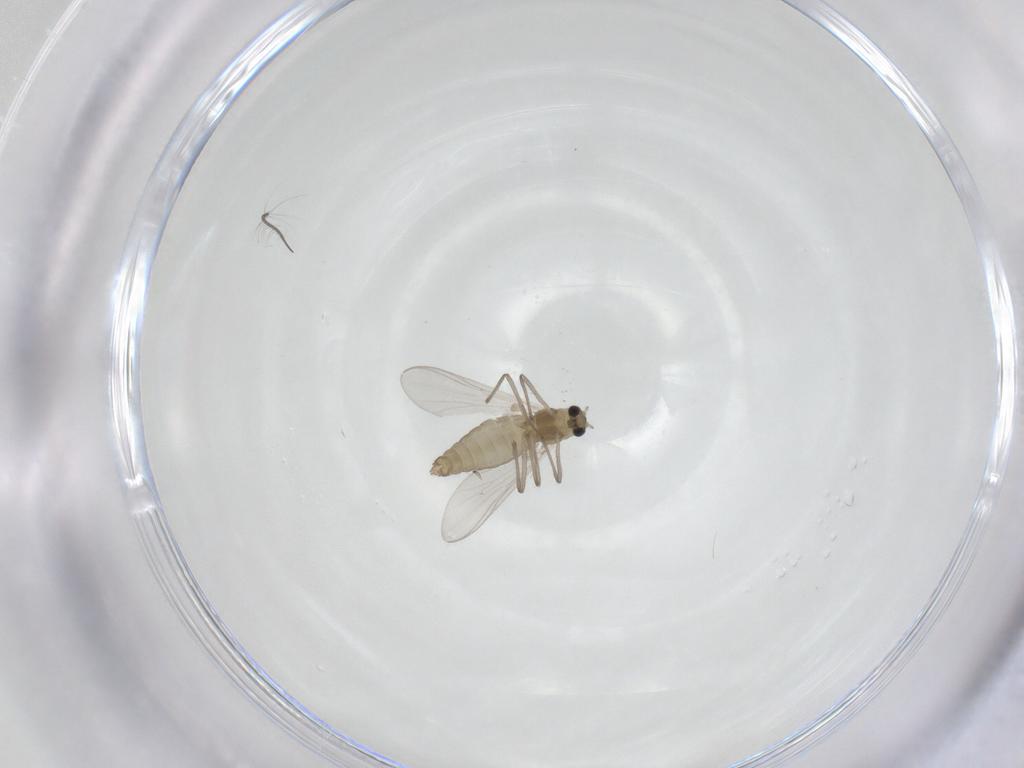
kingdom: Animalia
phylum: Arthropoda
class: Insecta
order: Diptera
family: Chironomidae
